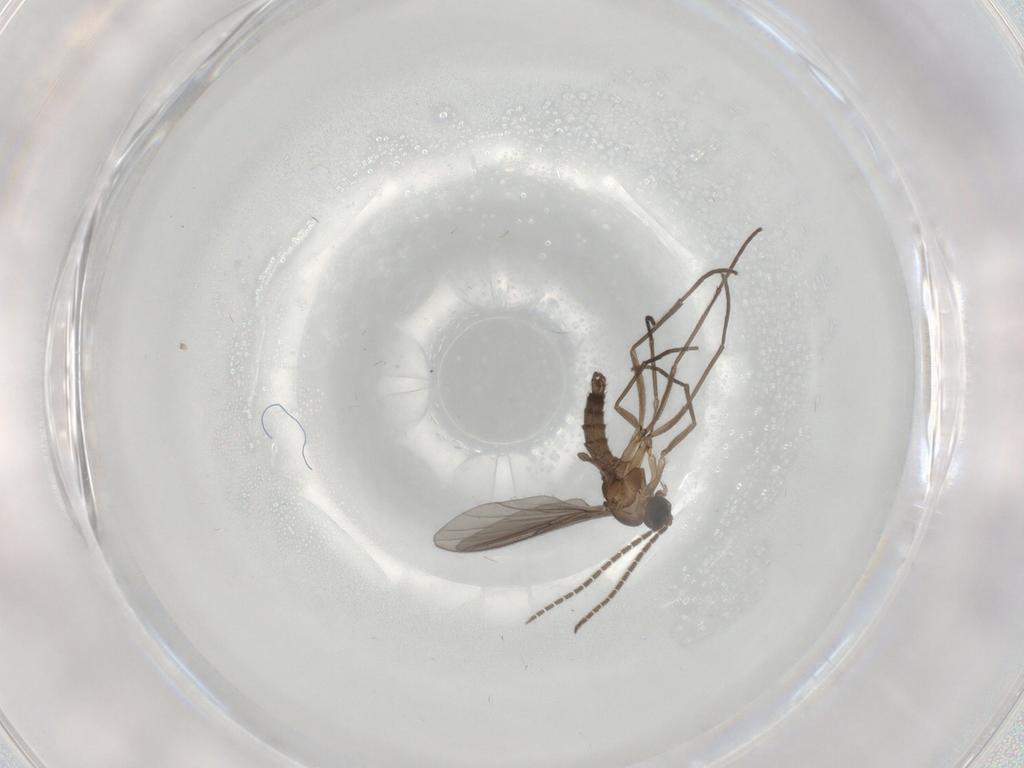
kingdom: Animalia
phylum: Arthropoda
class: Insecta
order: Diptera
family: Sciaridae
